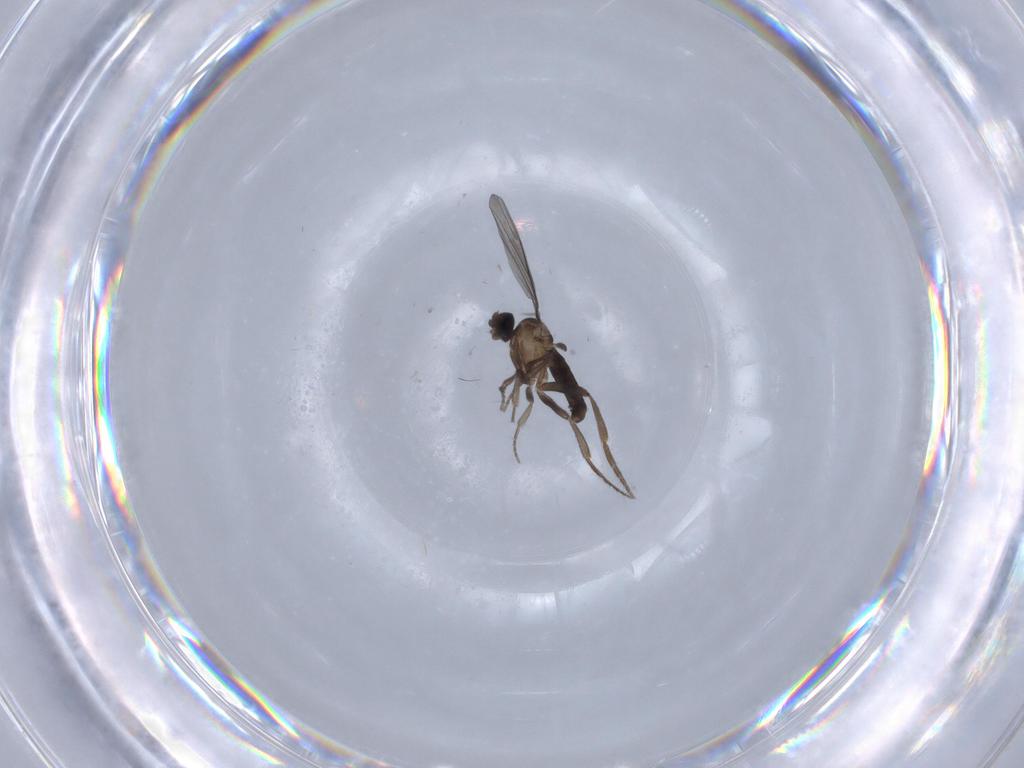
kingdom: Animalia
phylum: Arthropoda
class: Insecta
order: Diptera
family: Phoridae
